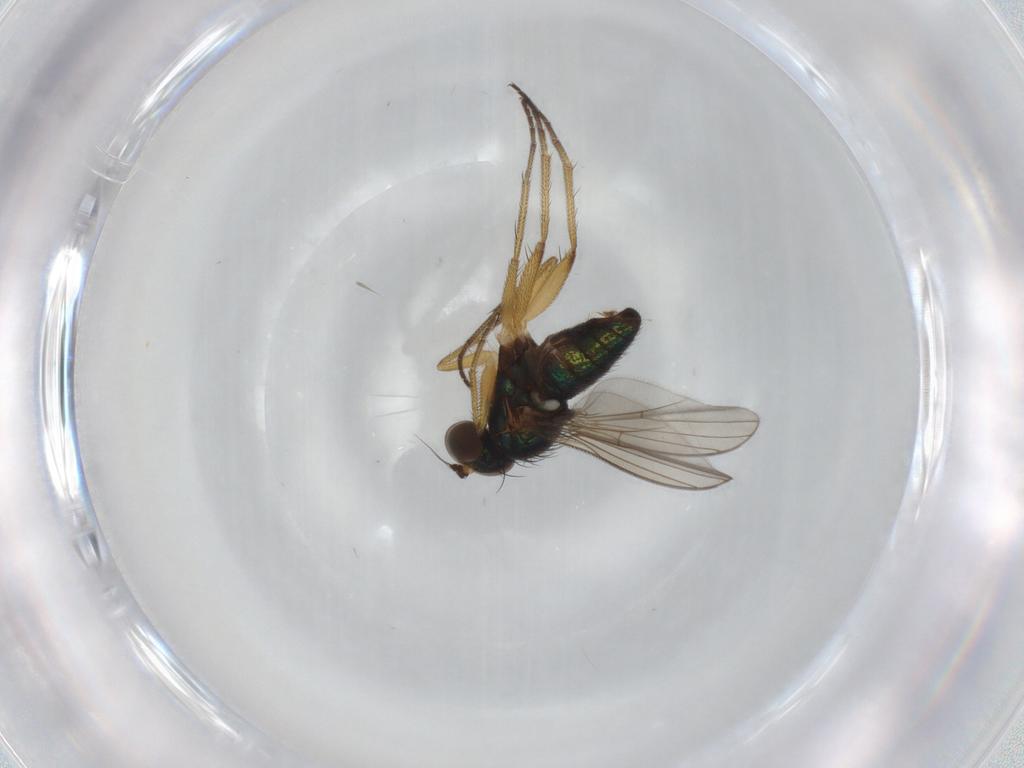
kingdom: Animalia
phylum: Arthropoda
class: Insecta
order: Diptera
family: Dolichopodidae
